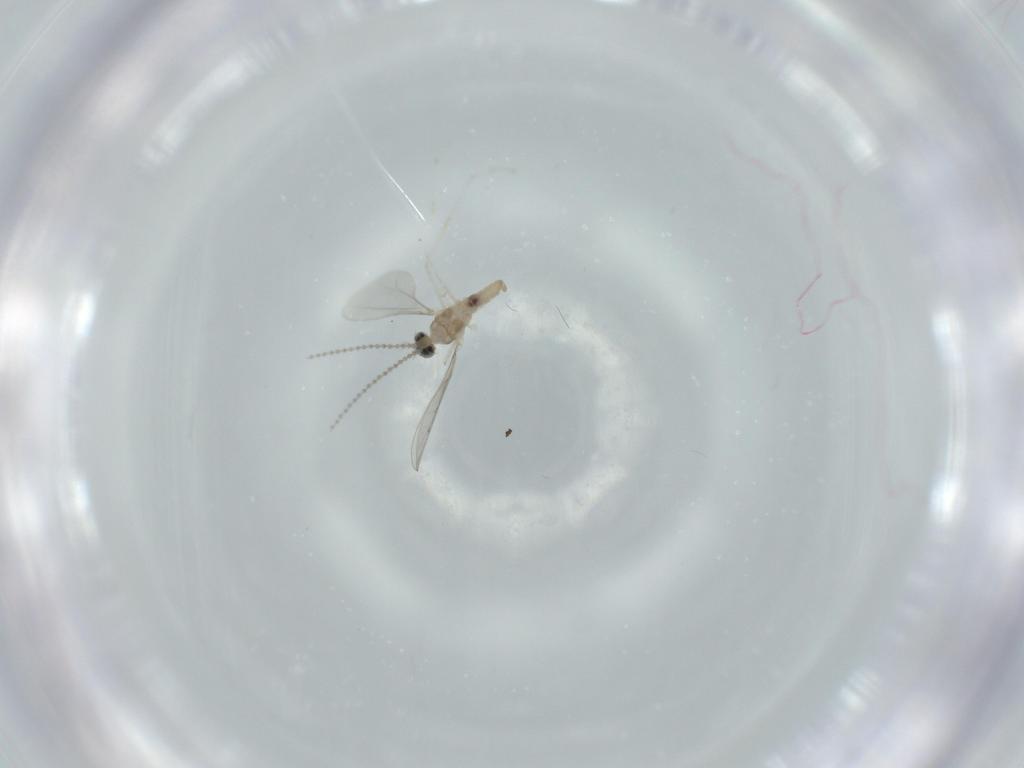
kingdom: Animalia
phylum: Arthropoda
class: Insecta
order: Diptera
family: Cecidomyiidae
